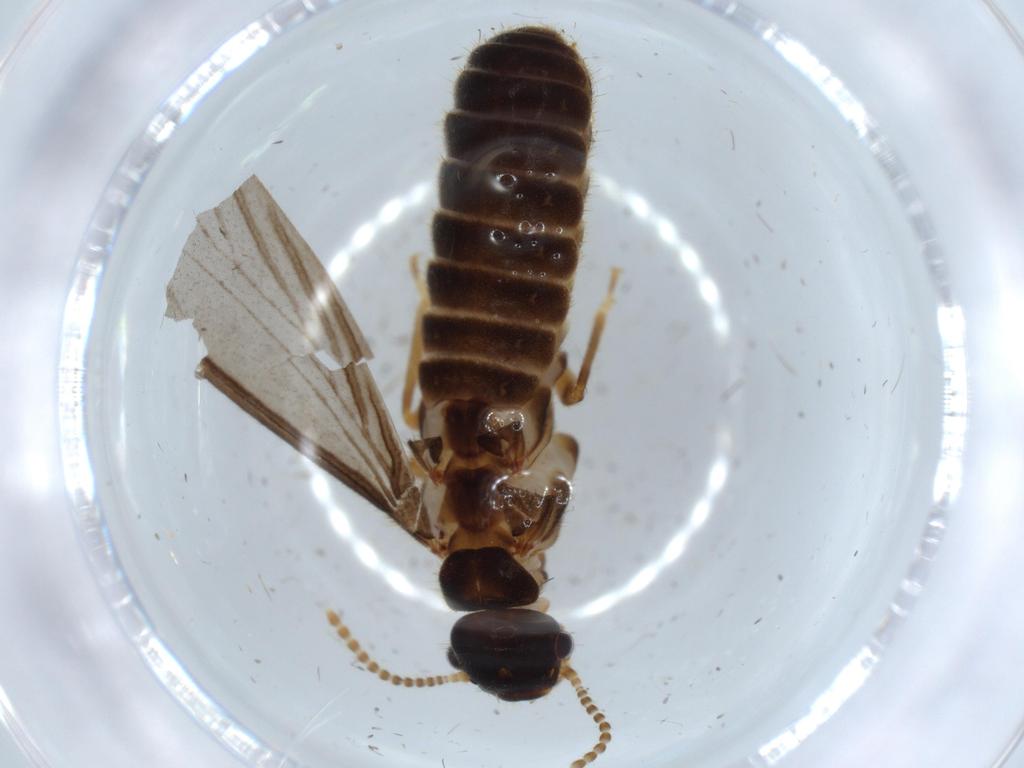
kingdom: Animalia
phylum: Arthropoda
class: Insecta
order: Blattodea
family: Termitidae
